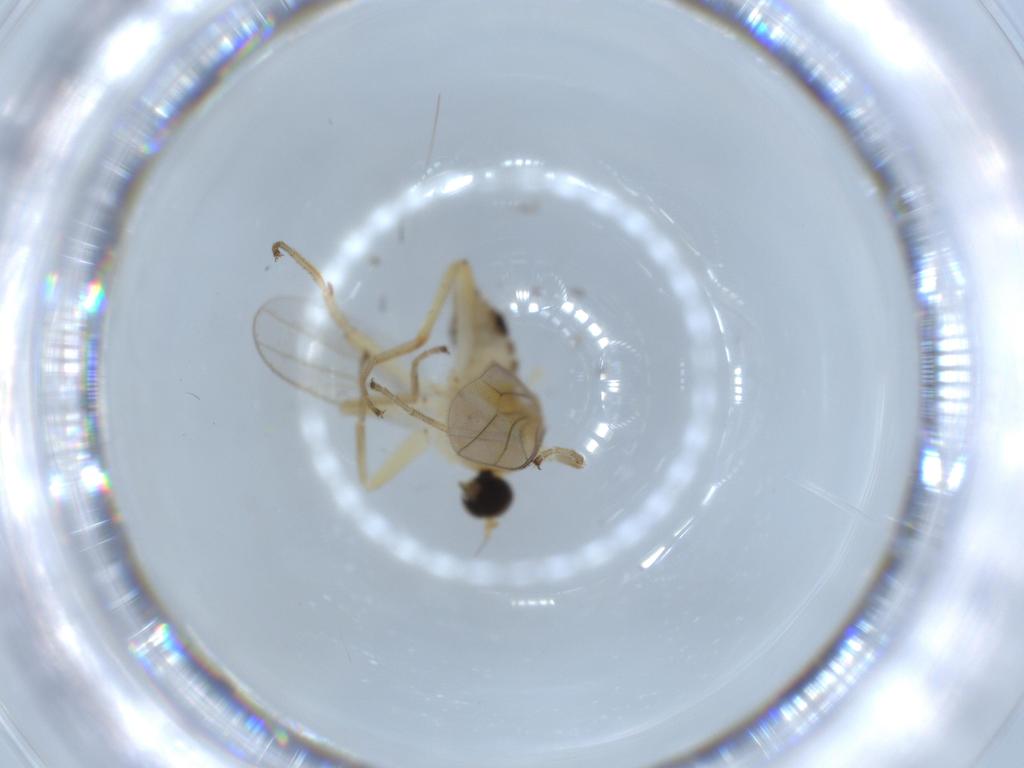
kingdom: Animalia
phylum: Arthropoda
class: Insecta
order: Diptera
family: Hybotidae
